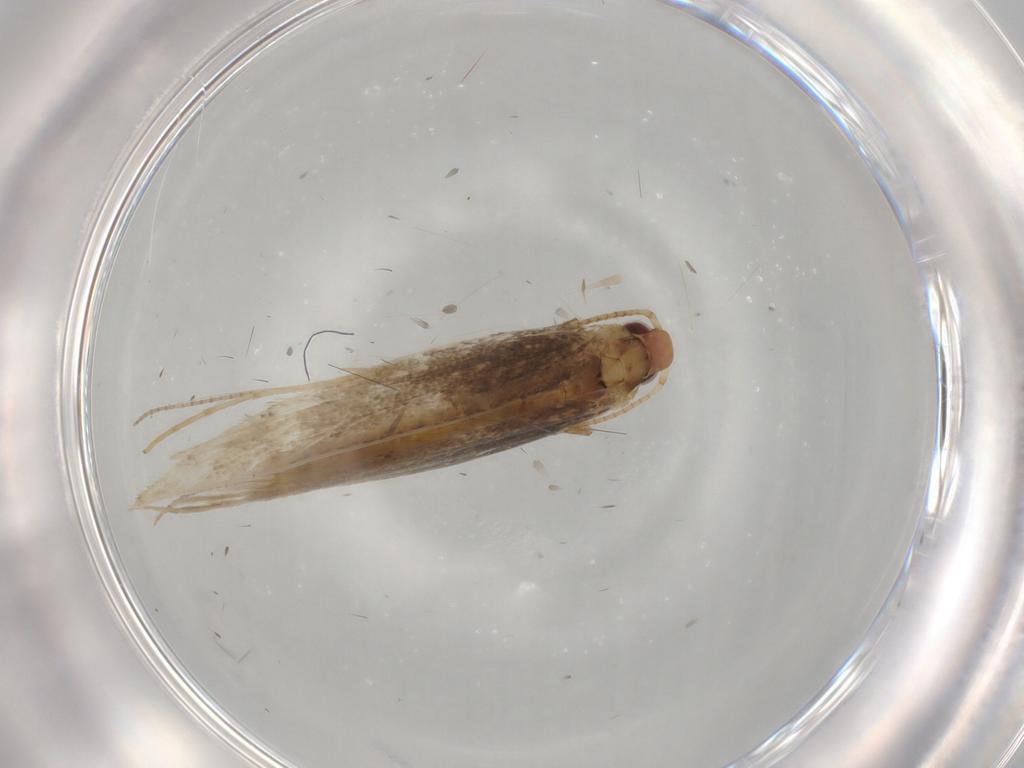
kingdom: Animalia
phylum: Arthropoda
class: Insecta
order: Lepidoptera
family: Gracillariidae
